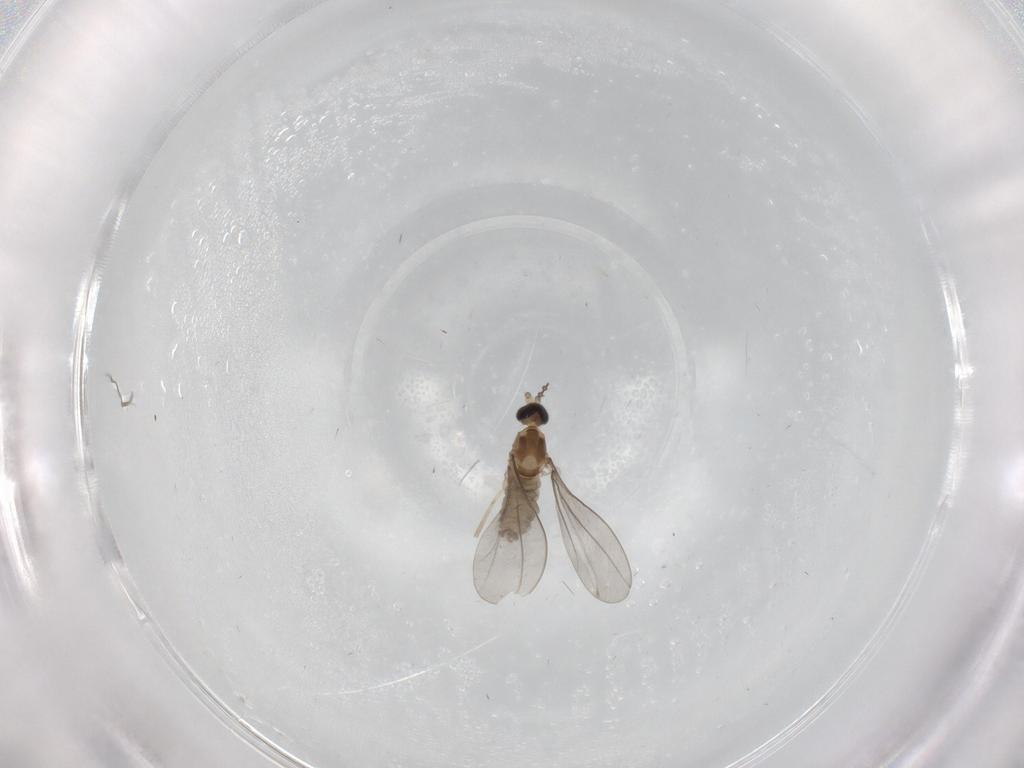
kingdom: Animalia
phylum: Arthropoda
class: Insecta
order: Diptera
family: Cecidomyiidae
